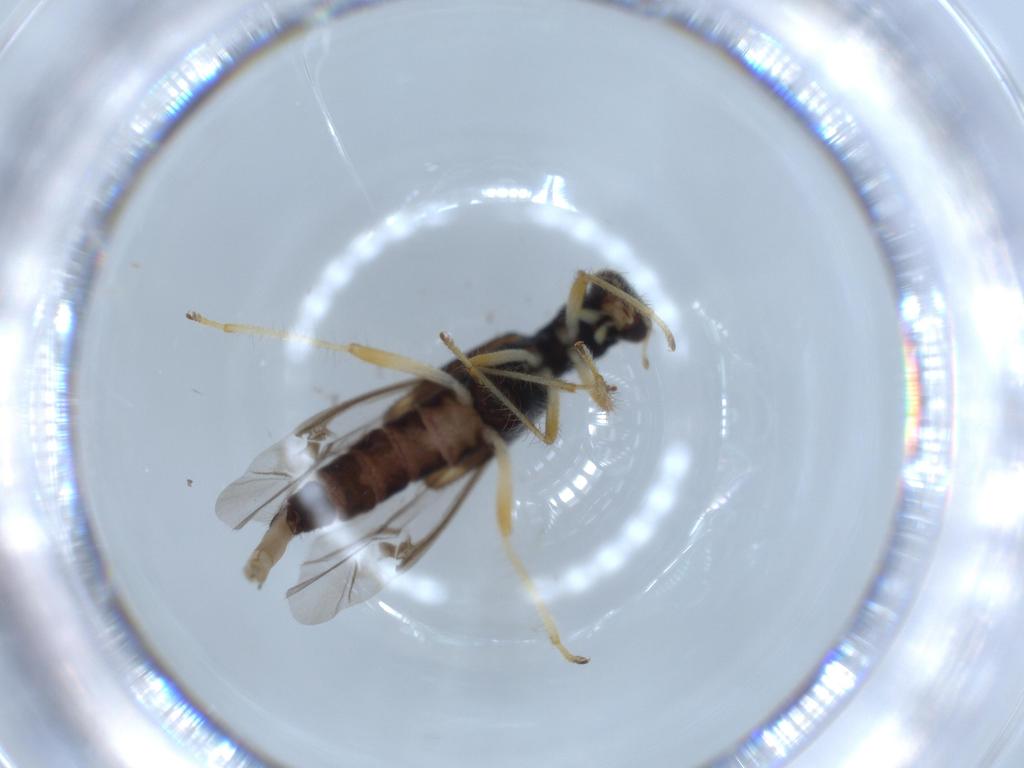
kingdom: Animalia
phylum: Arthropoda
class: Insecta
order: Coleoptera
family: Cleridae
